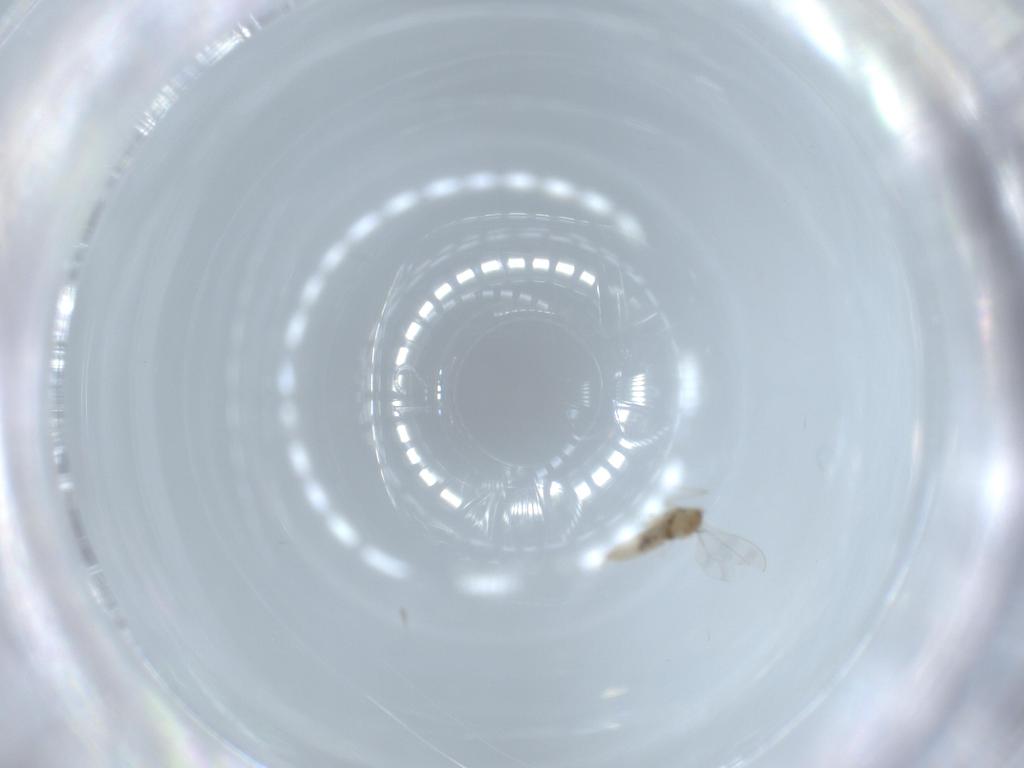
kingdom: Animalia
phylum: Arthropoda
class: Insecta
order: Diptera
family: Cecidomyiidae
